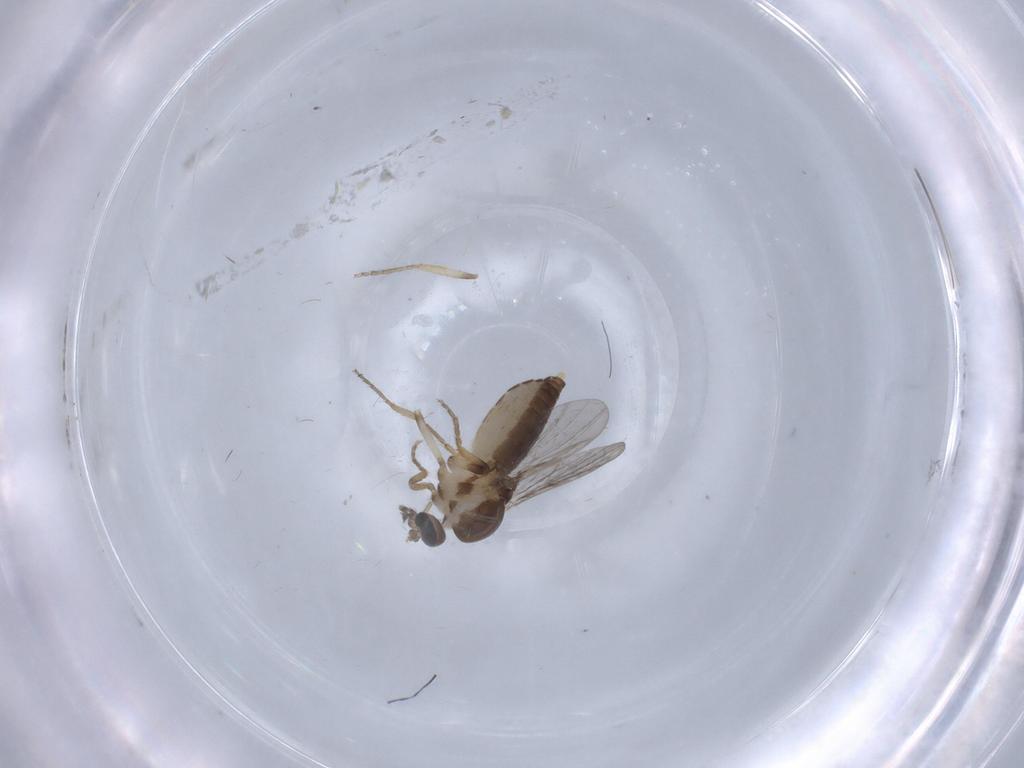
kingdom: Animalia
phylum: Arthropoda
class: Insecta
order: Diptera
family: Ceratopogonidae
